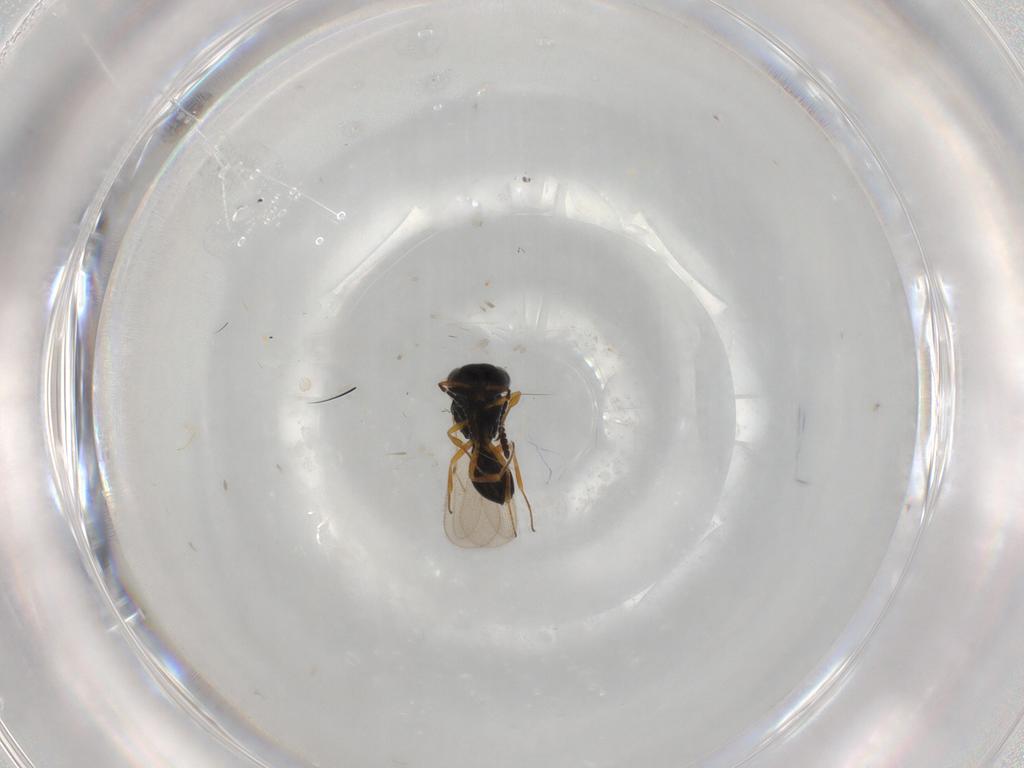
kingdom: Animalia
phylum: Arthropoda
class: Insecta
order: Hymenoptera
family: Scelionidae
